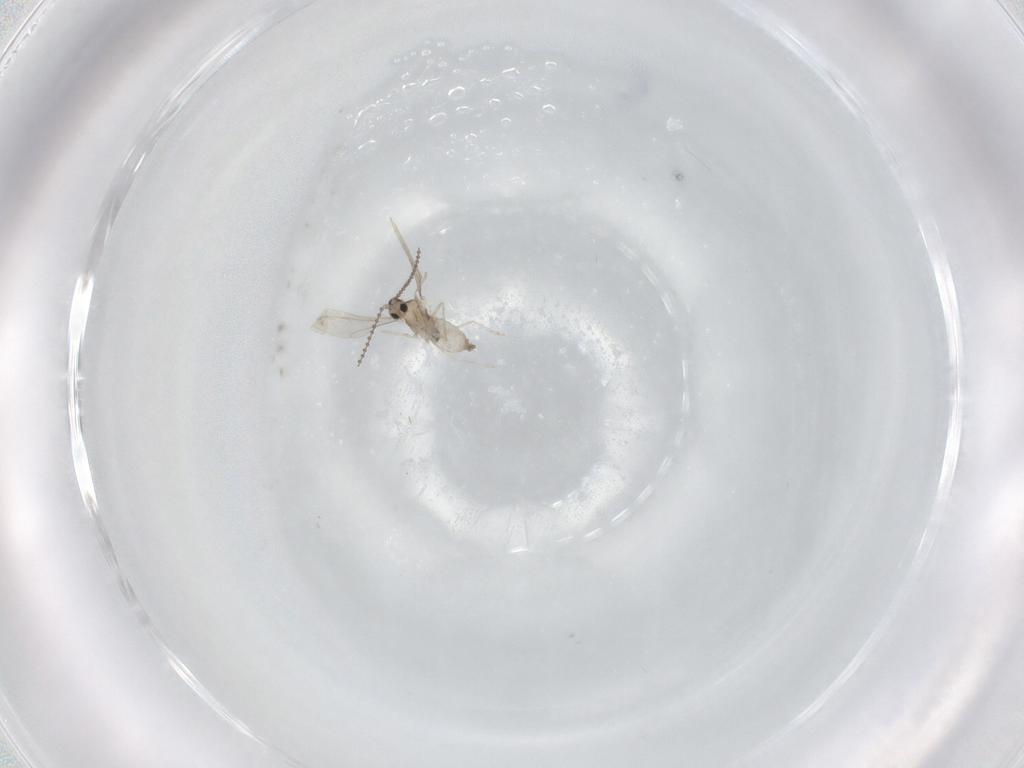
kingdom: Animalia
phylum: Arthropoda
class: Insecta
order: Diptera
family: Cecidomyiidae
